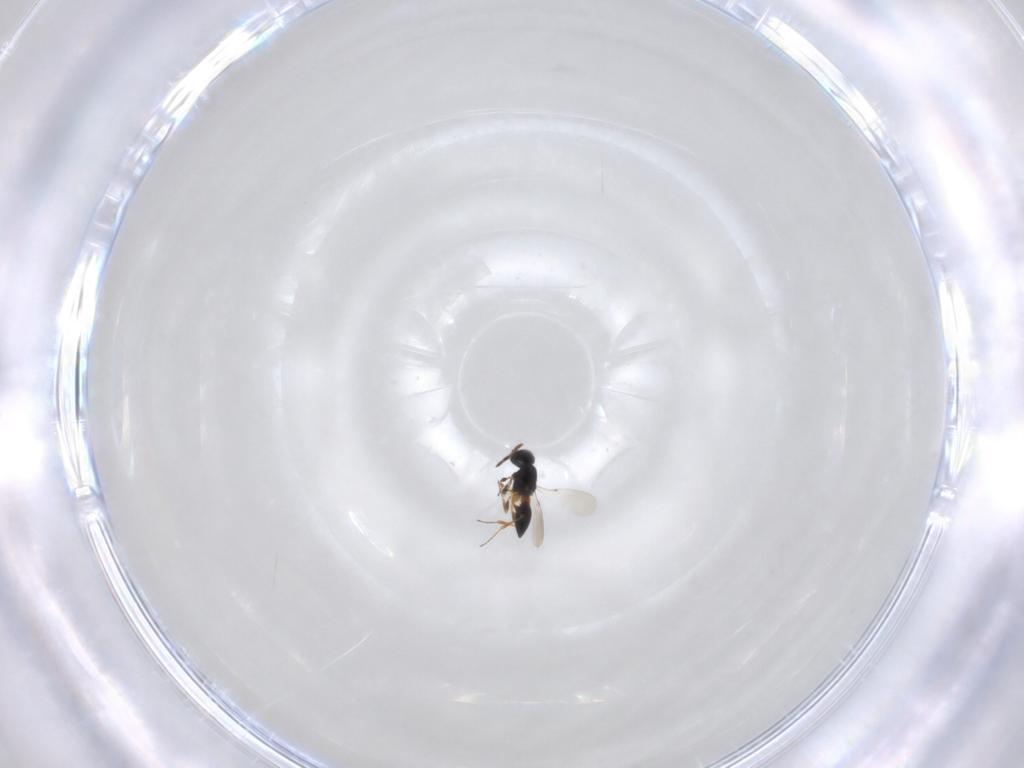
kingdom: Animalia
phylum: Arthropoda
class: Insecta
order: Hymenoptera
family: Platygastridae
